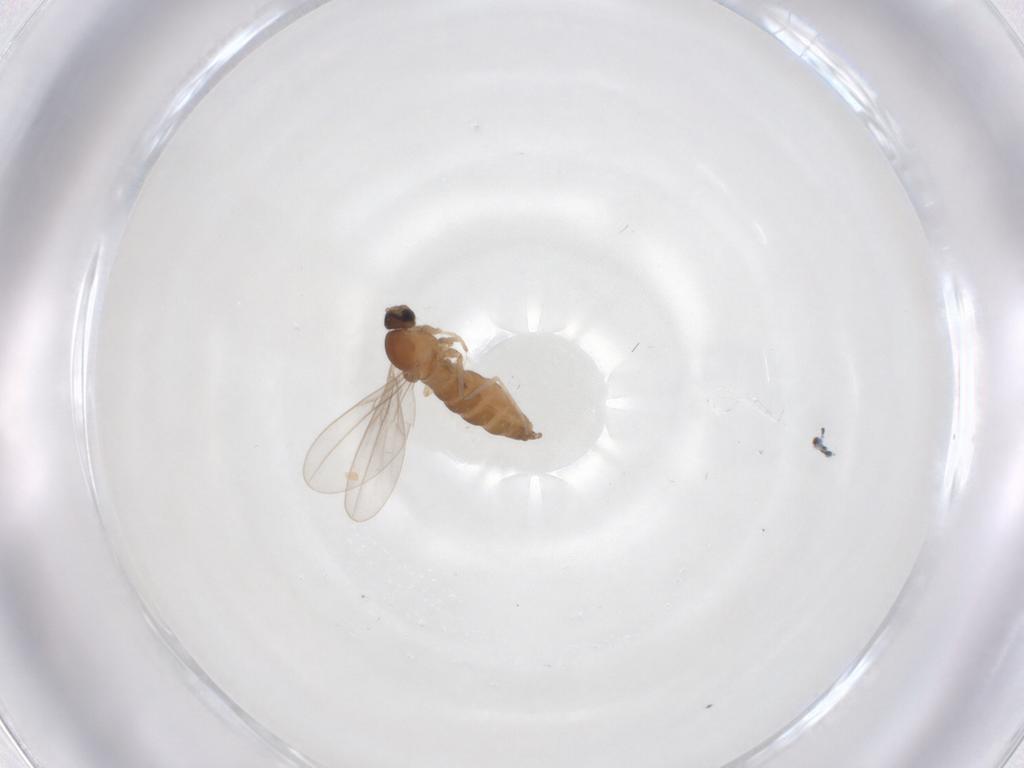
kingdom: Animalia
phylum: Arthropoda
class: Insecta
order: Diptera
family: Cecidomyiidae
